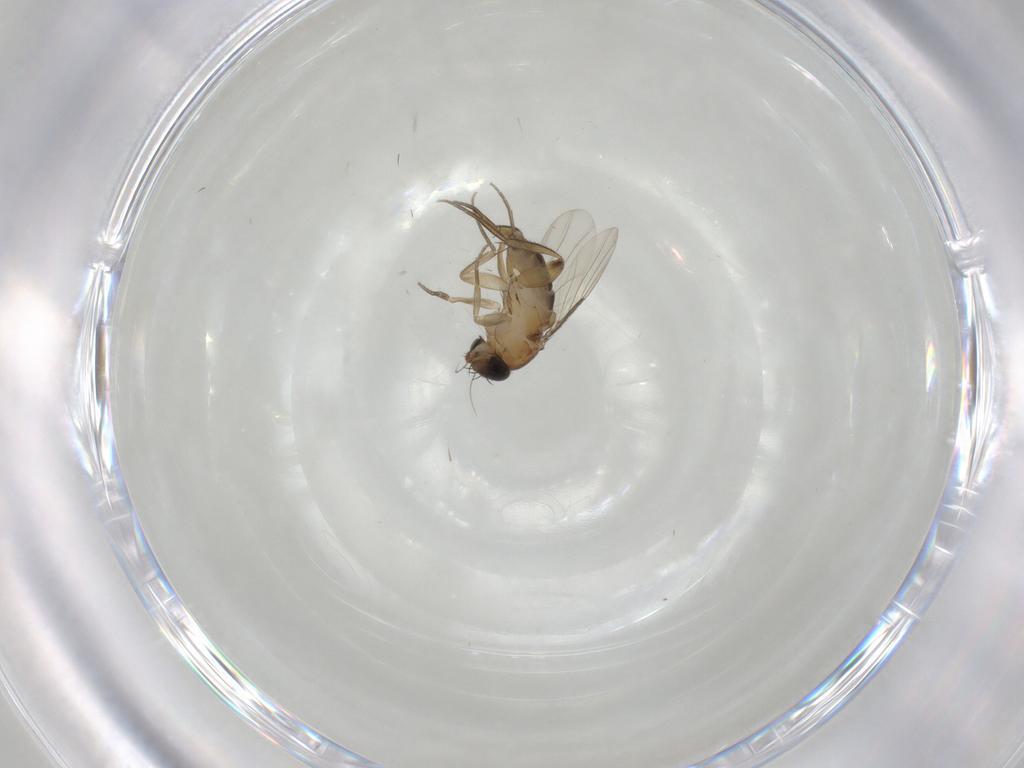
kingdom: Animalia
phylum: Arthropoda
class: Insecta
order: Diptera
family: Phoridae
